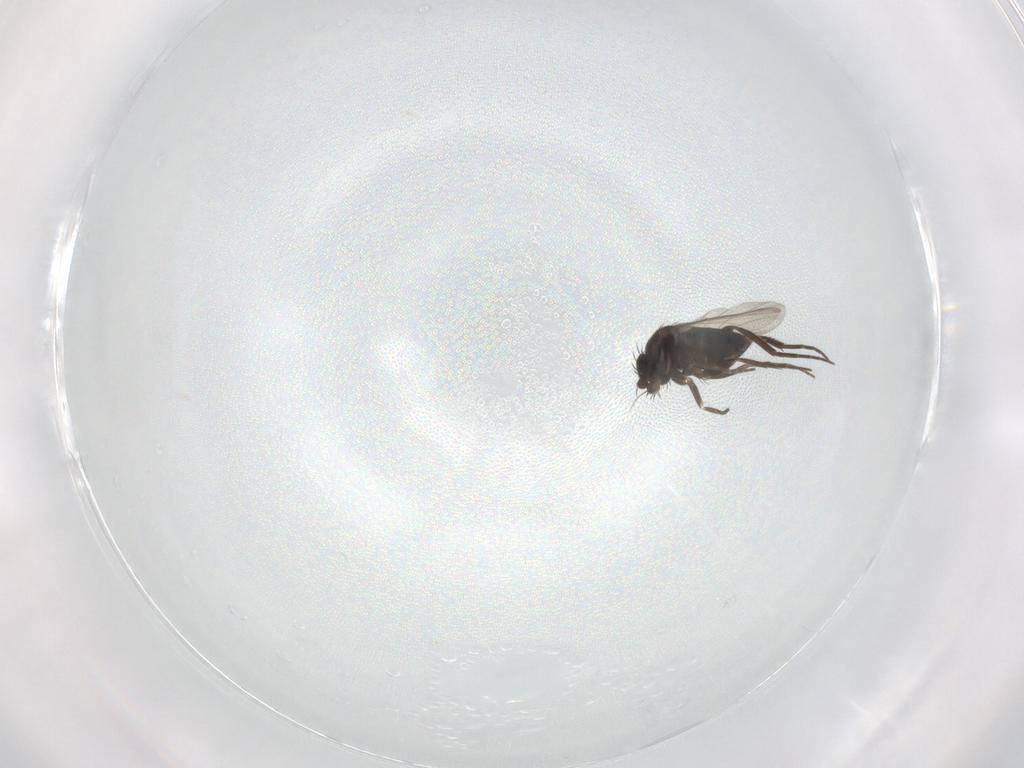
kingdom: Animalia
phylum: Arthropoda
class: Insecta
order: Diptera
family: Phoridae
